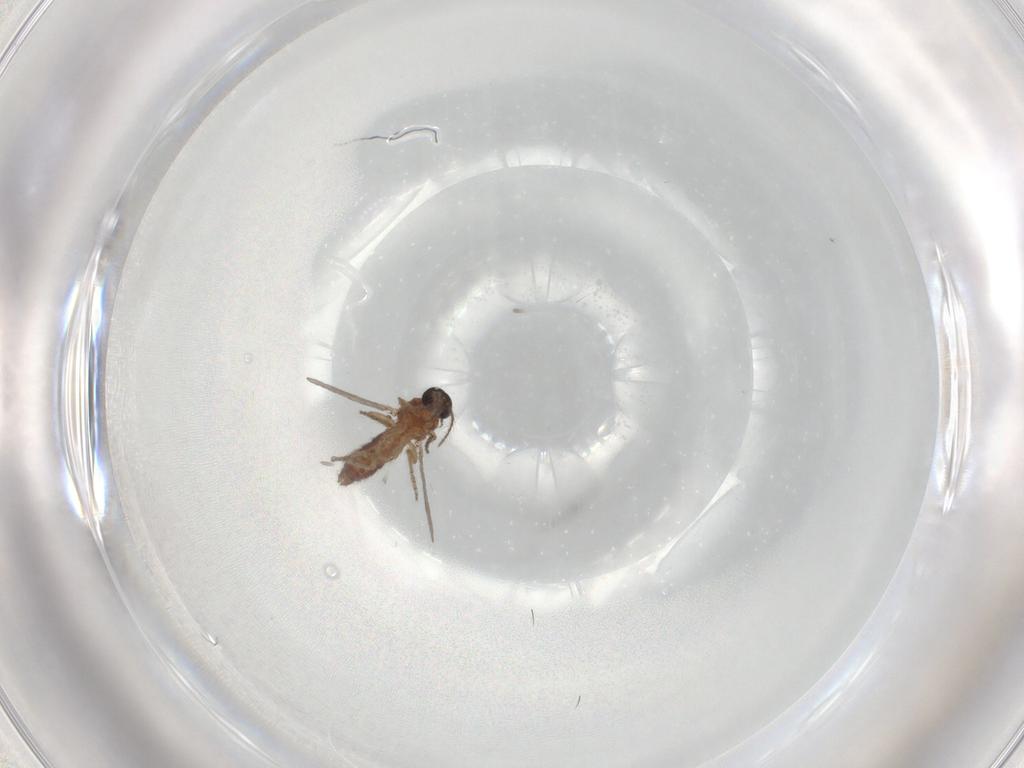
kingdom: Animalia
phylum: Arthropoda
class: Insecta
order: Diptera
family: Ceratopogonidae
